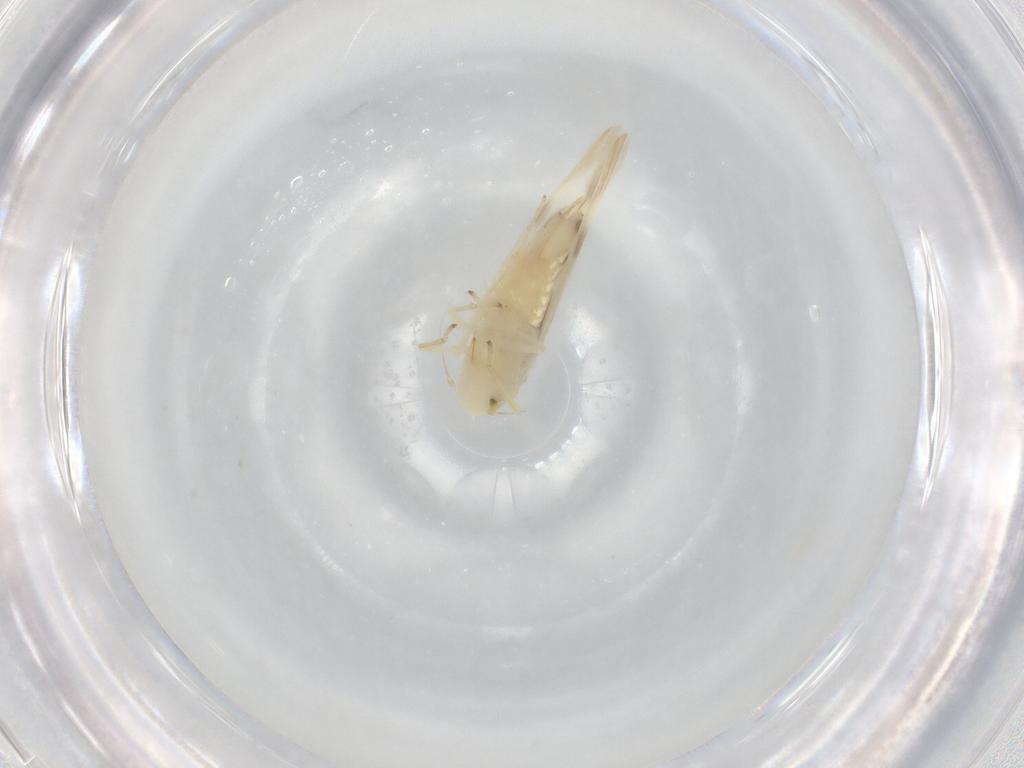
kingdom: Animalia
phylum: Arthropoda
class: Insecta
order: Hemiptera
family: Cicadellidae
